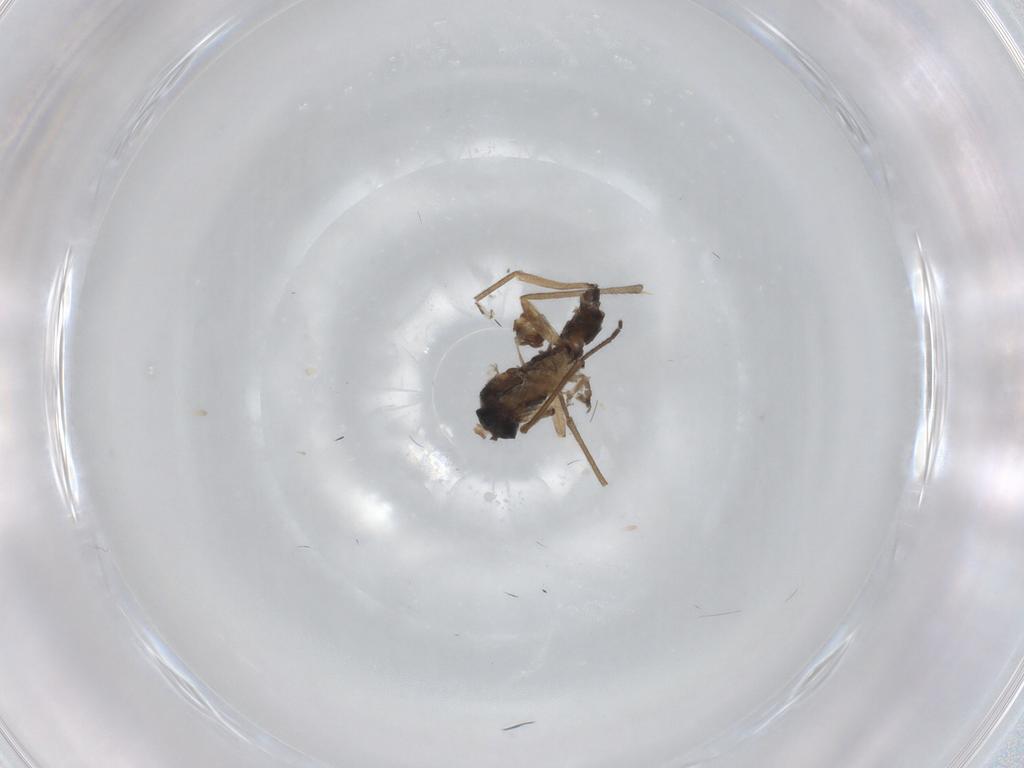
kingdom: Animalia
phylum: Arthropoda
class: Insecta
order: Diptera
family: Sciaridae
